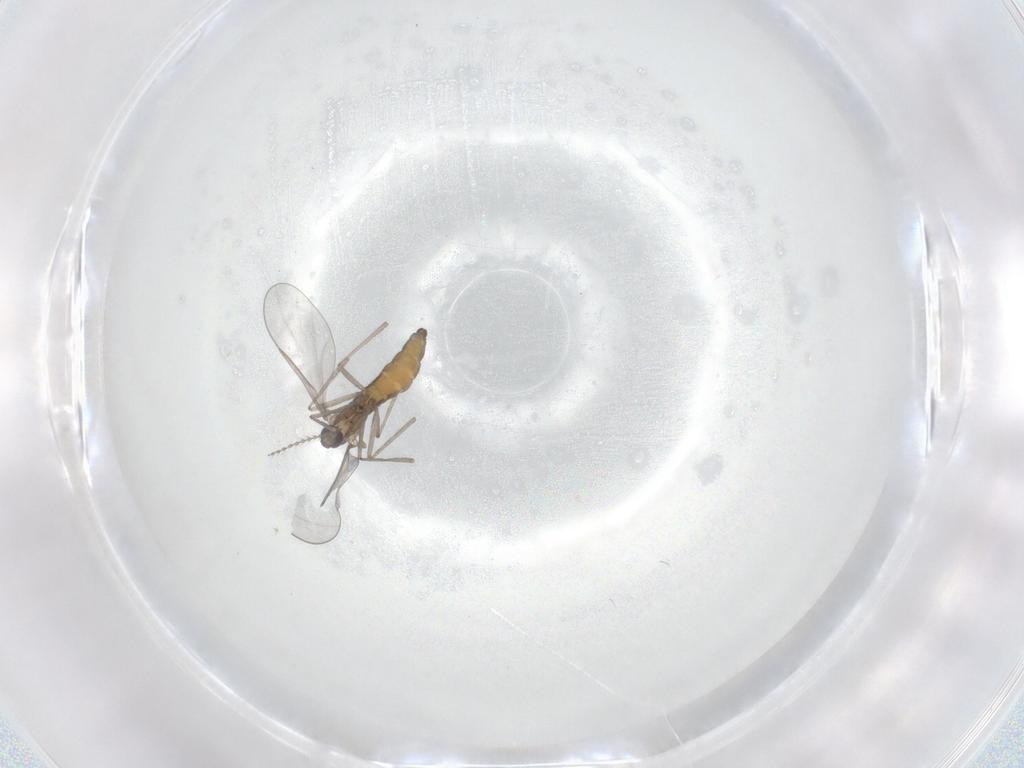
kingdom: Animalia
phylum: Arthropoda
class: Insecta
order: Diptera
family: Cecidomyiidae
